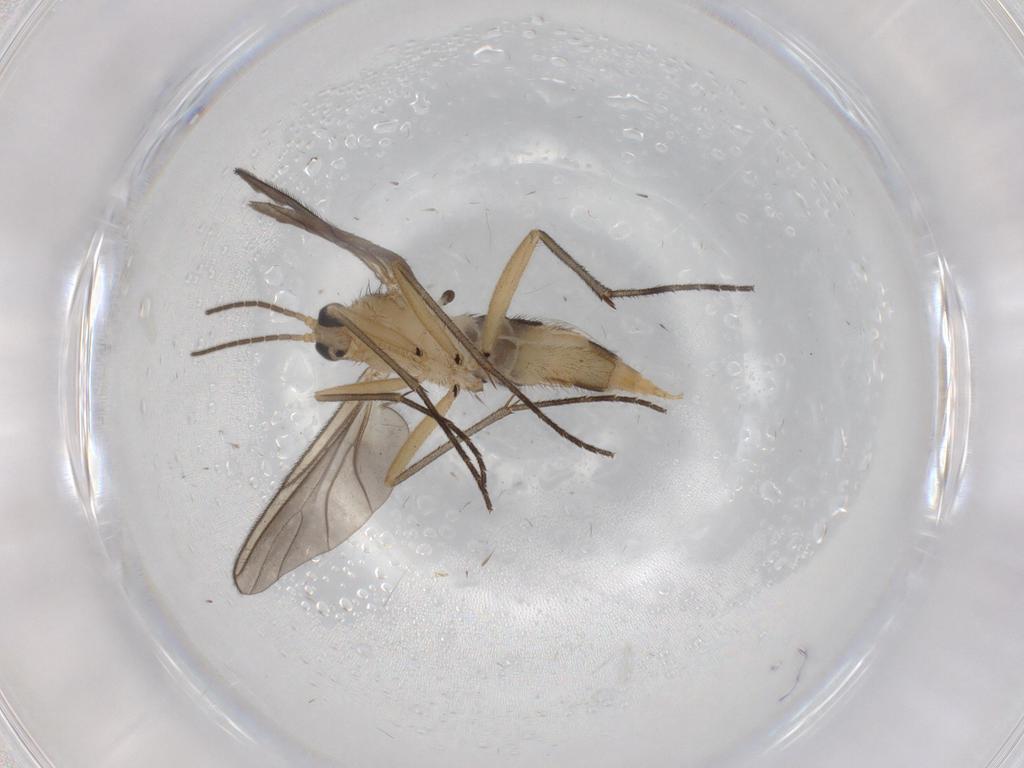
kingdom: Animalia
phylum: Arthropoda
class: Insecta
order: Diptera
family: Sciaridae
